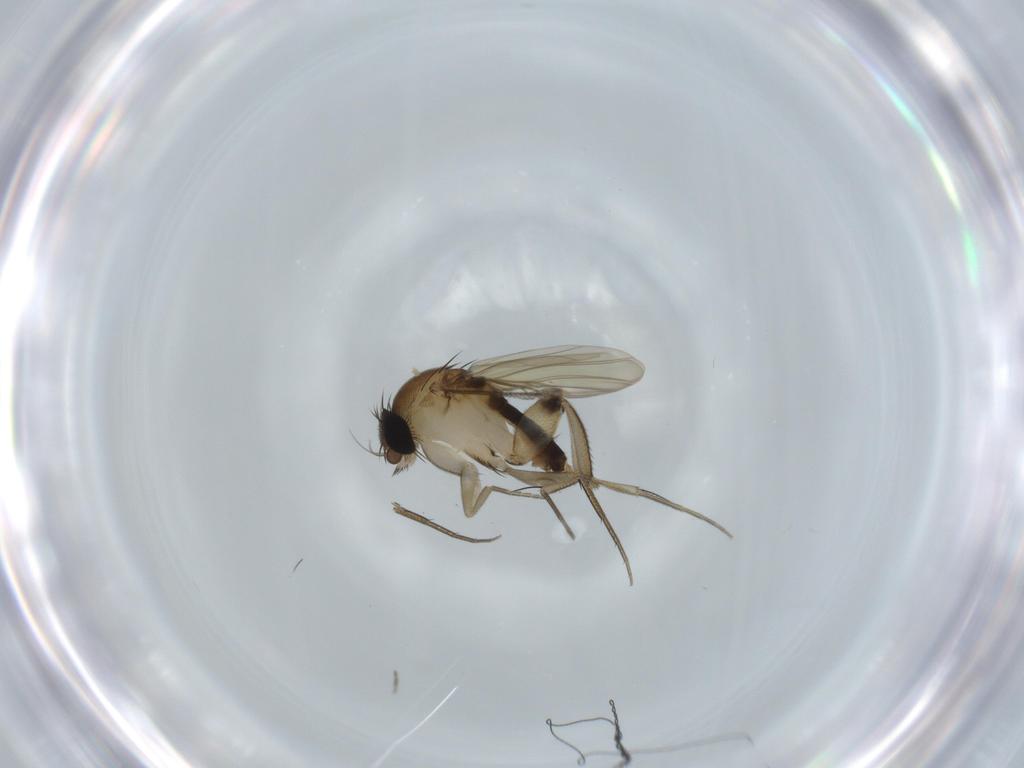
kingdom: Animalia
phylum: Arthropoda
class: Insecta
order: Diptera
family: Phoridae
